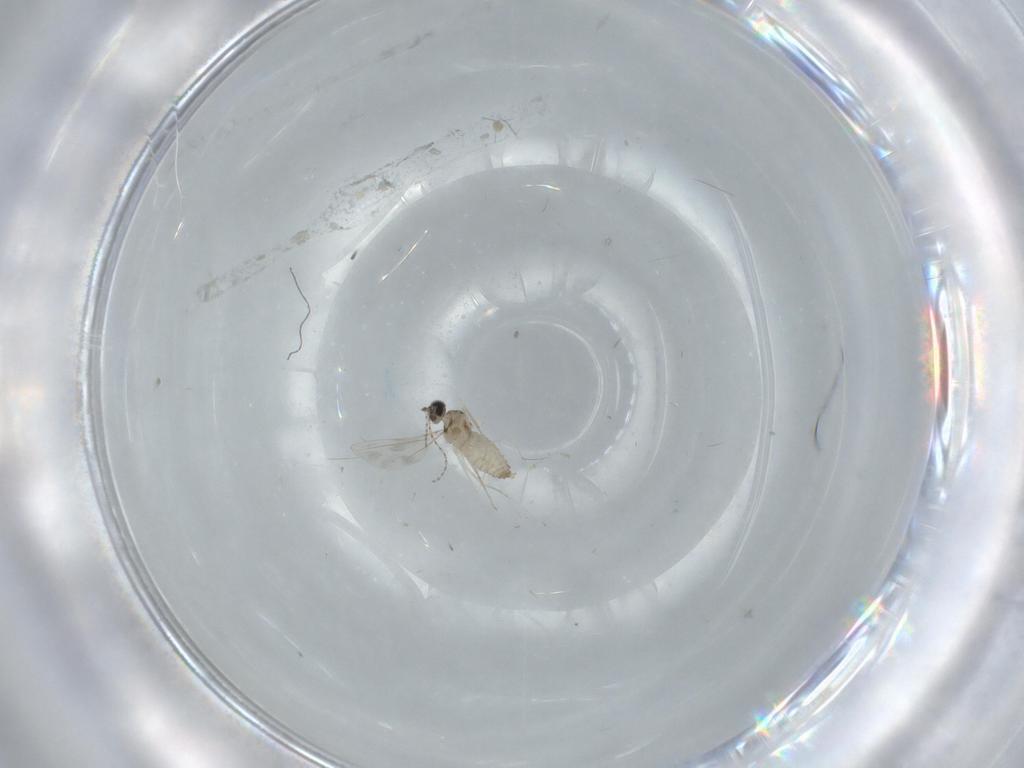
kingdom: Animalia
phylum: Arthropoda
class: Insecta
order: Diptera
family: Cecidomyiidae
